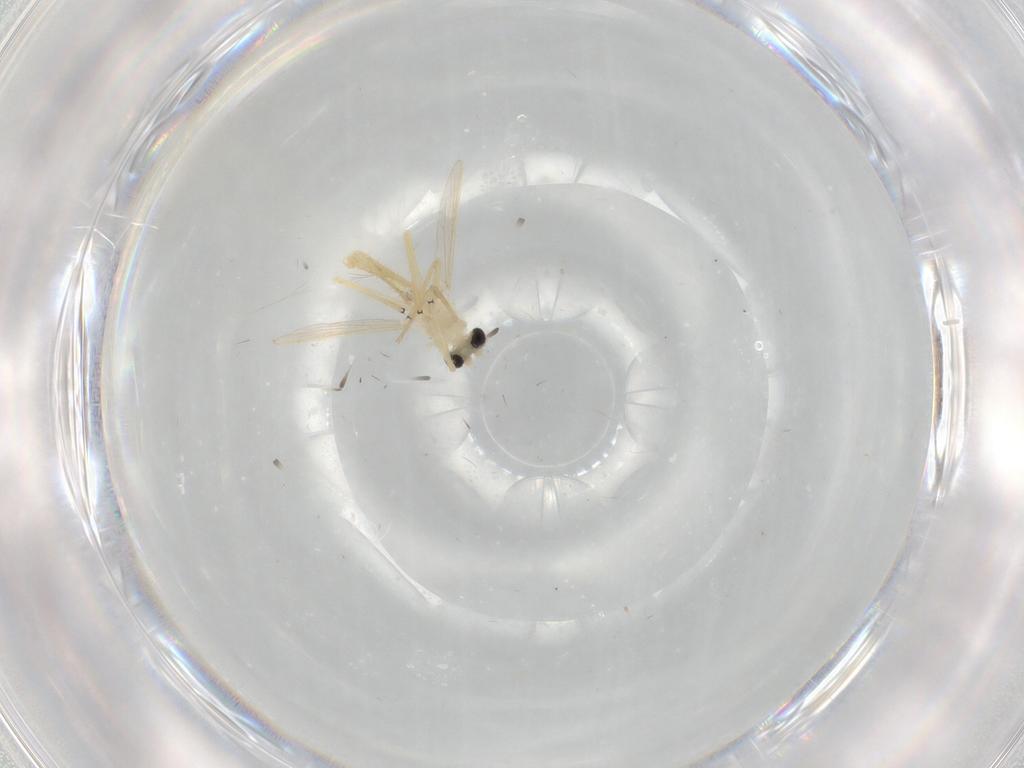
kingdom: Animalia
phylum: Arthropoda
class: Insecta
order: Diptera
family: Chironomidae
